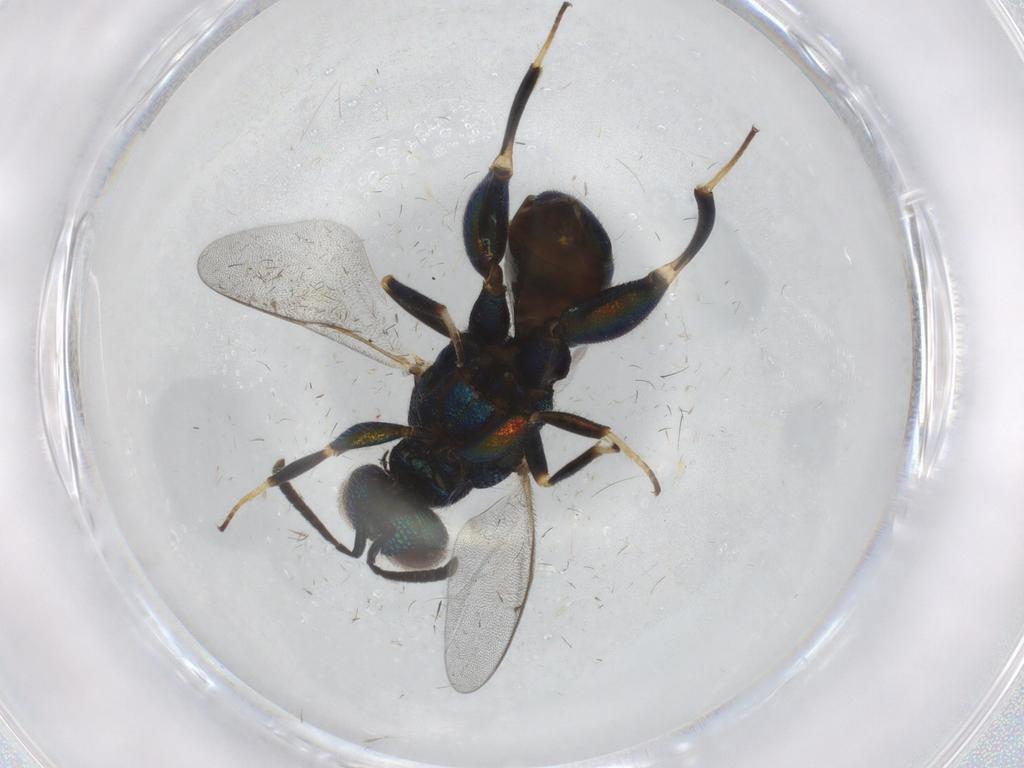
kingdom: Animalia
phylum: Arthropoda
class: Insecta
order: Hymenoptera
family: Pteromalidae
